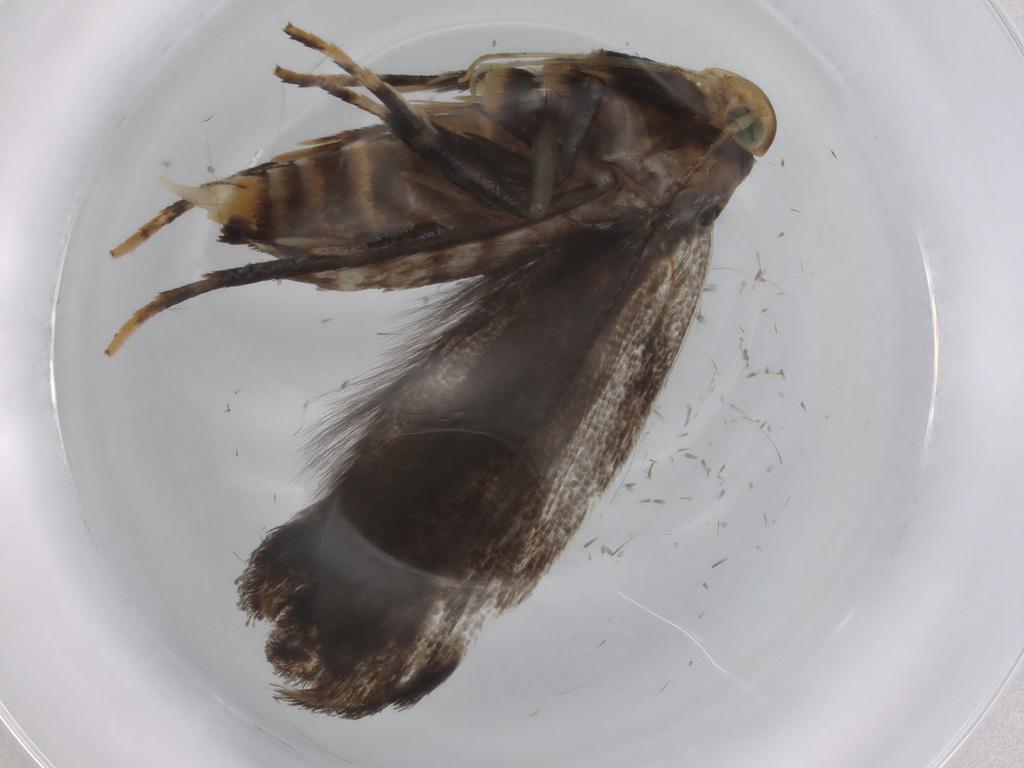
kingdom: Animalia
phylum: Arthropoda
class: Insecta
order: Lepidoptera
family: Gelechiidae
